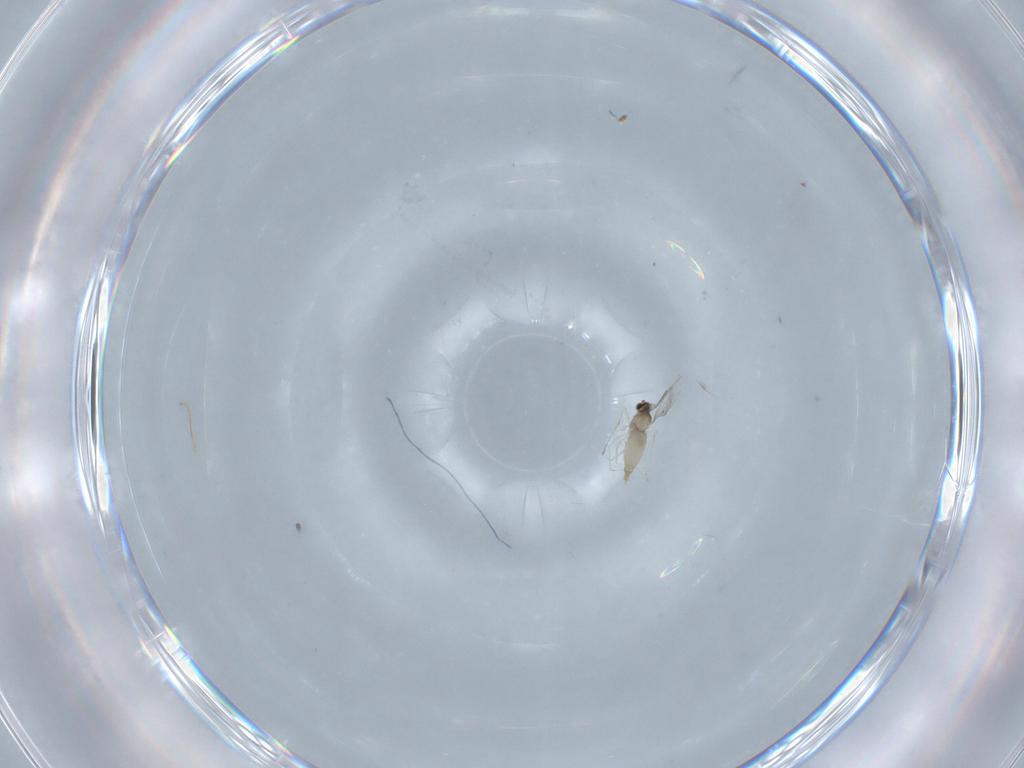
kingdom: Animalia
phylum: Arthropoda
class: Insecta
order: Diptera
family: Cecidomyiidae
